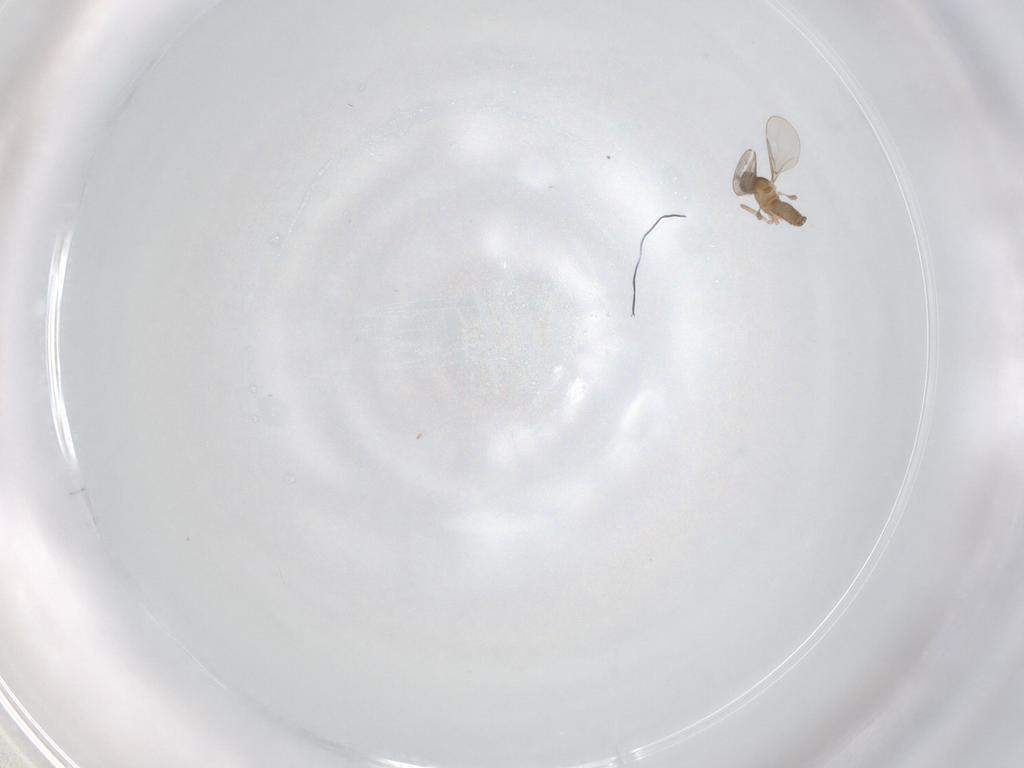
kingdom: Animalia
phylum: Arthropoda
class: Insecta
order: Diptera
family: Cecidomyiidae
